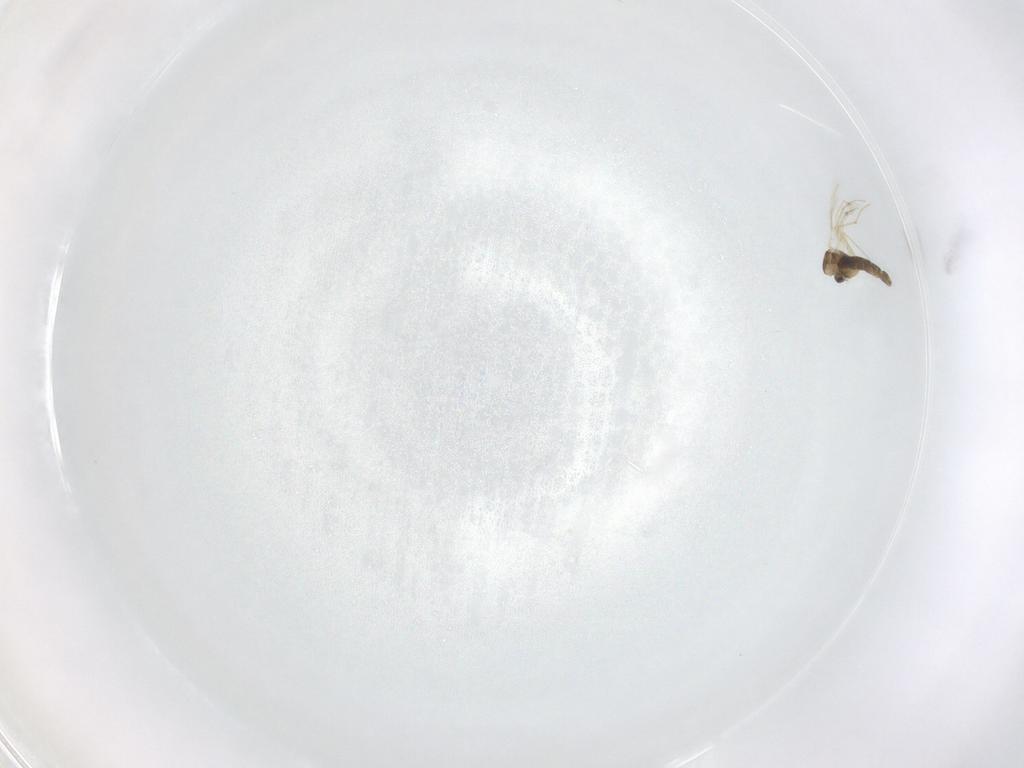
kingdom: Animalia
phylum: Arthropoda
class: Insecta
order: Diptera
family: Chironomidae
